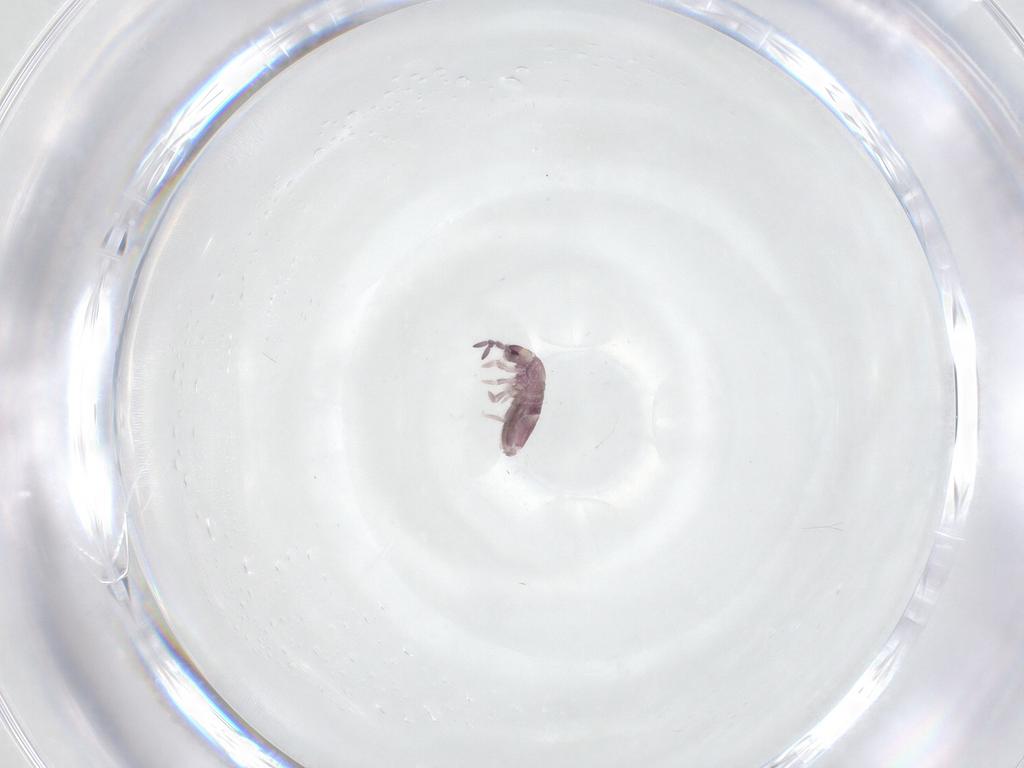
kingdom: Animalia
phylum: Arthropoda
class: Collembola
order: Entomobryomorpha
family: Entomobryidae
